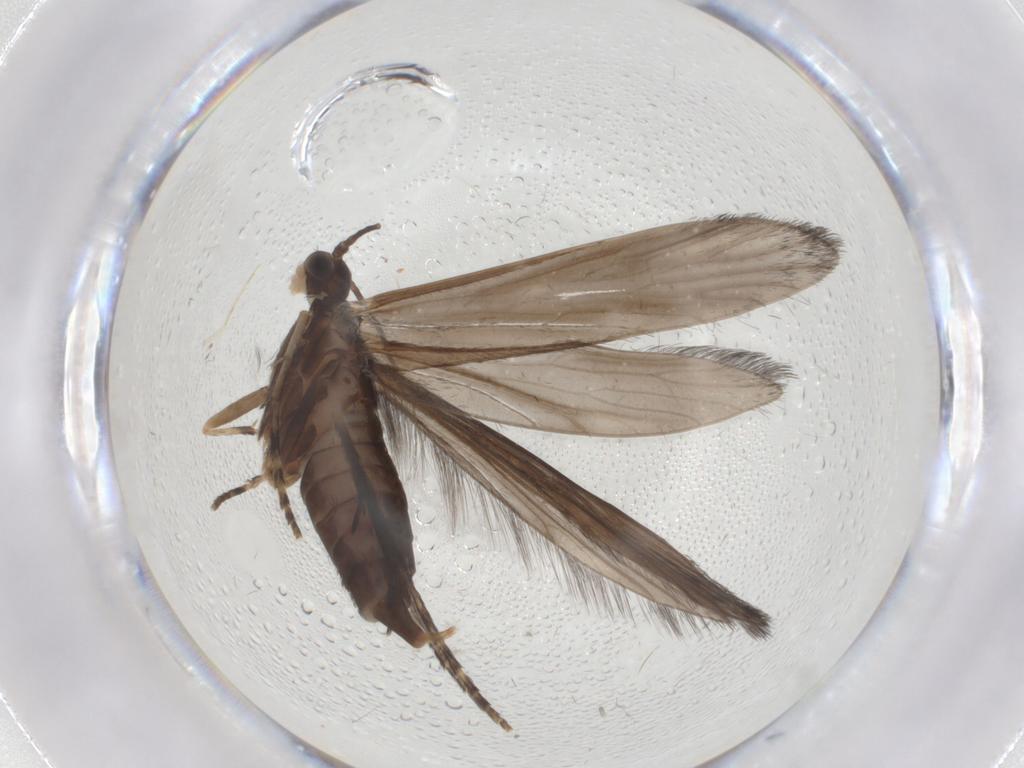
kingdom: Animalia
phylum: Arthropoda
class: Insecta
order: Trichoptera
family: Xiphocentronidae
